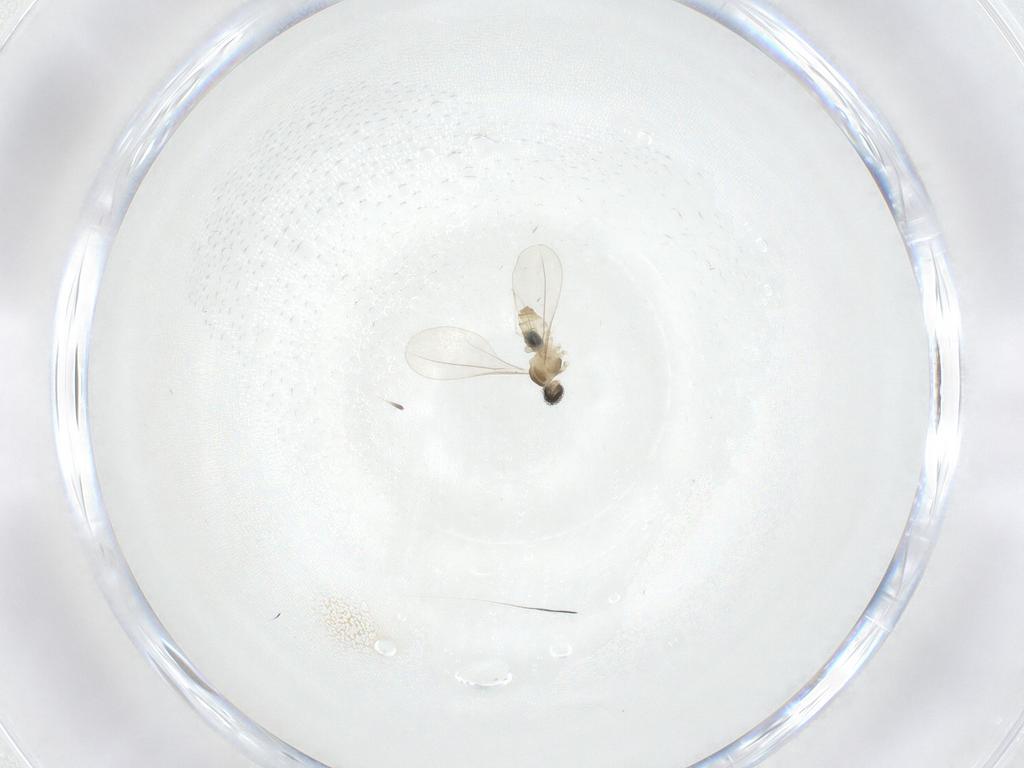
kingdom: Animalia
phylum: Arthropoda
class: Insecta
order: Diptera
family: Cecidomyiidae
